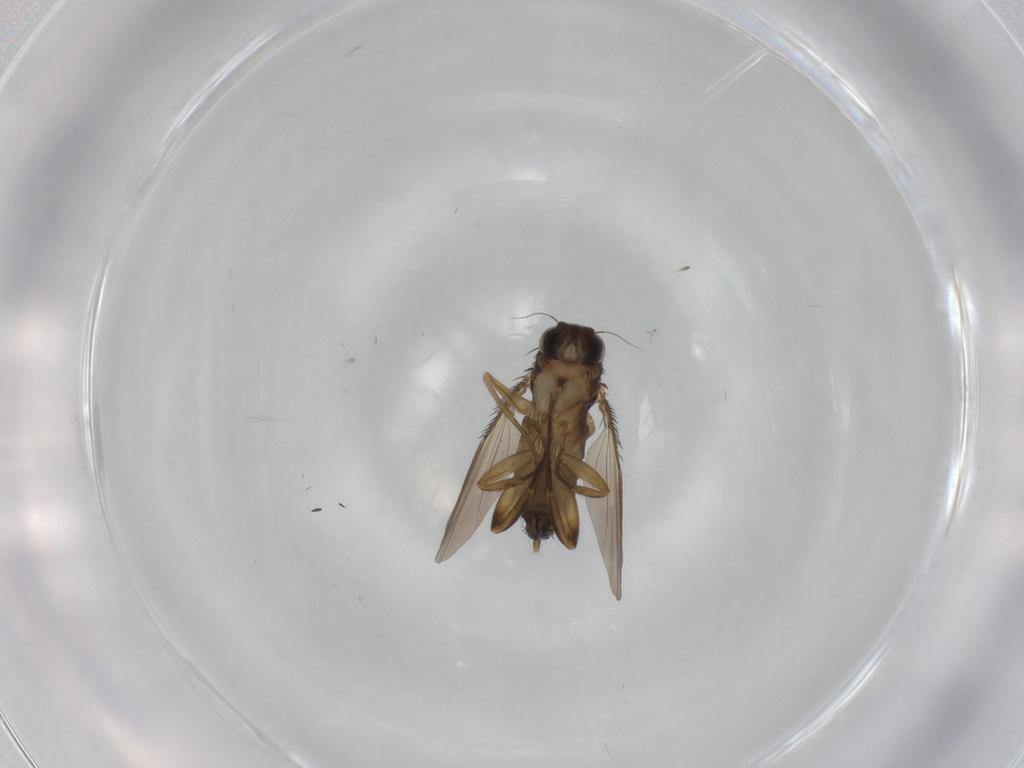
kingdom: Animalia
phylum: Arthropoda
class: Insecta
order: Diptera
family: Phoridae
